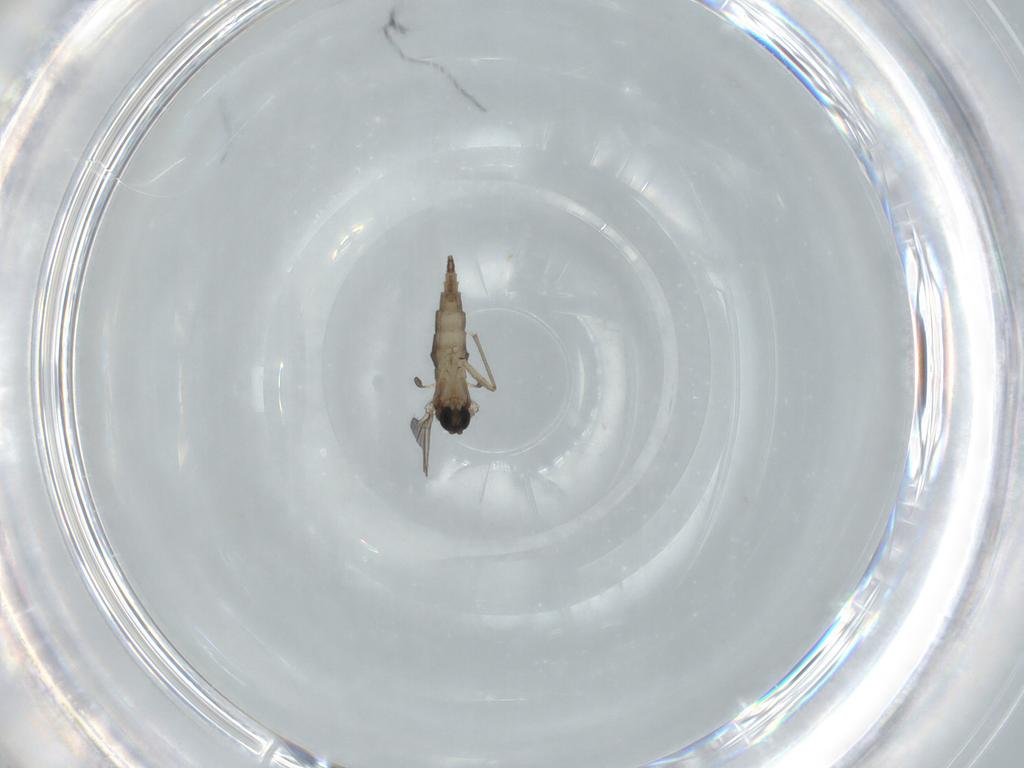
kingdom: Animalia
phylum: Arthropoda
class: Insecta
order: Diptera
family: Sciaridae
